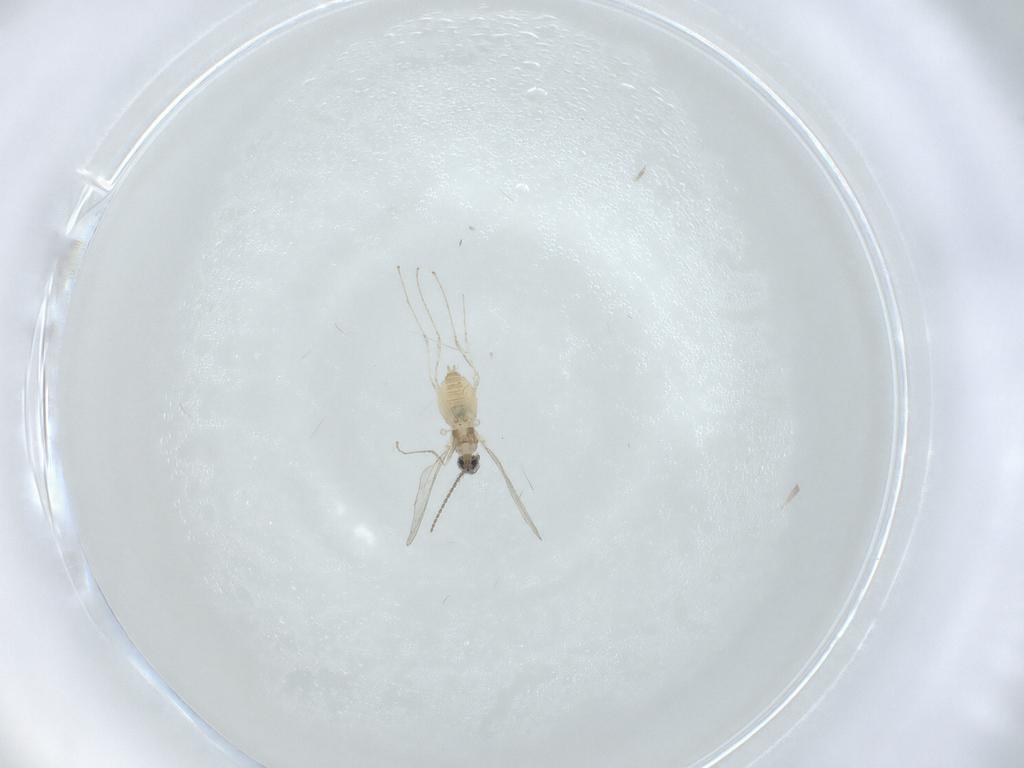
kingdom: Animalia
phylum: Arthropoda
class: Insecta
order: Diptera
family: Cecidomyiidae
